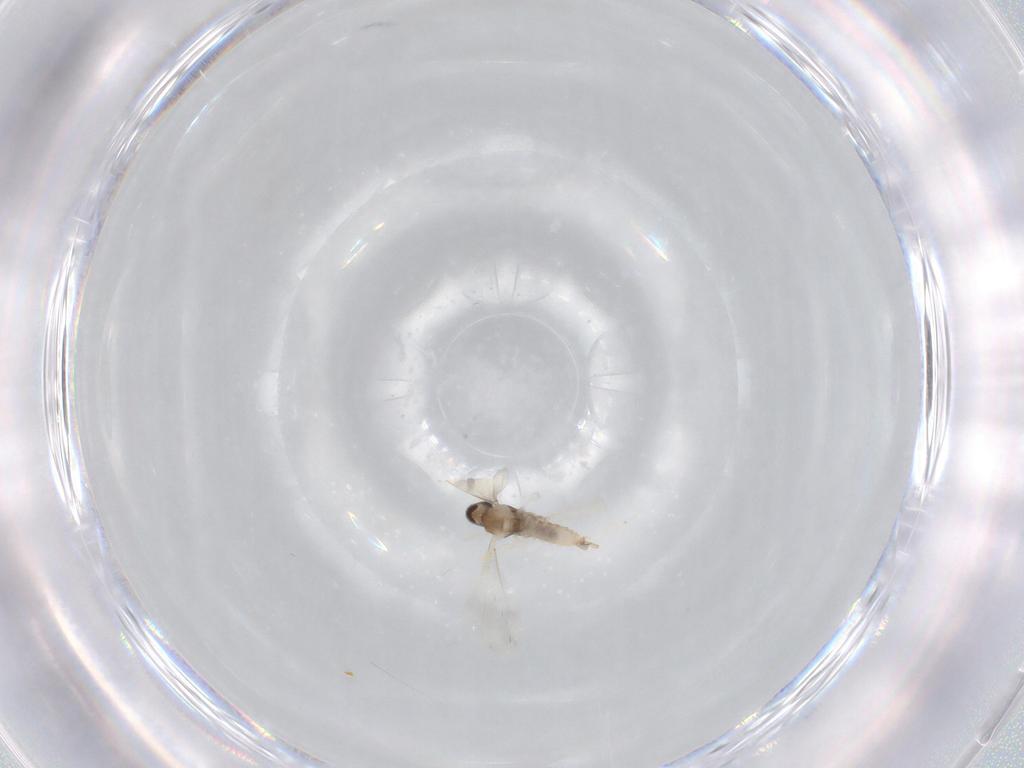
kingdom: Animalia
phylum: Arthropoda
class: Insecta
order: Diptera
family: Cecidomyiidae
